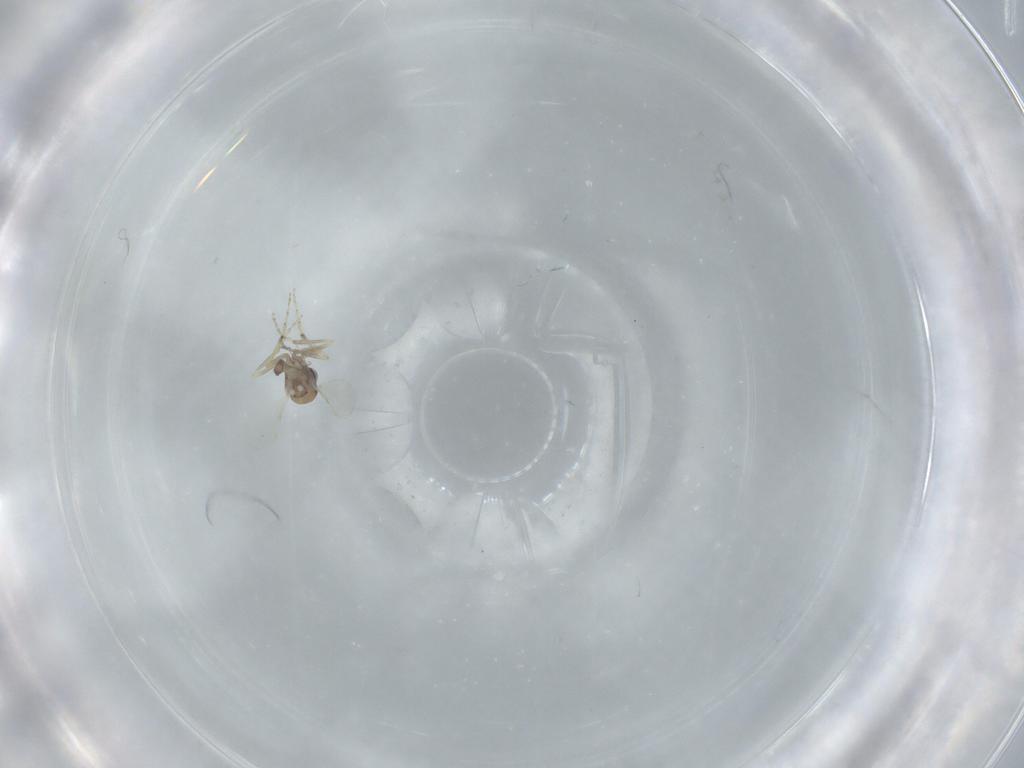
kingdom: Animalia
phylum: Arthropoda
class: Insecta
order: Diptera
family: Ceratopogonidae
